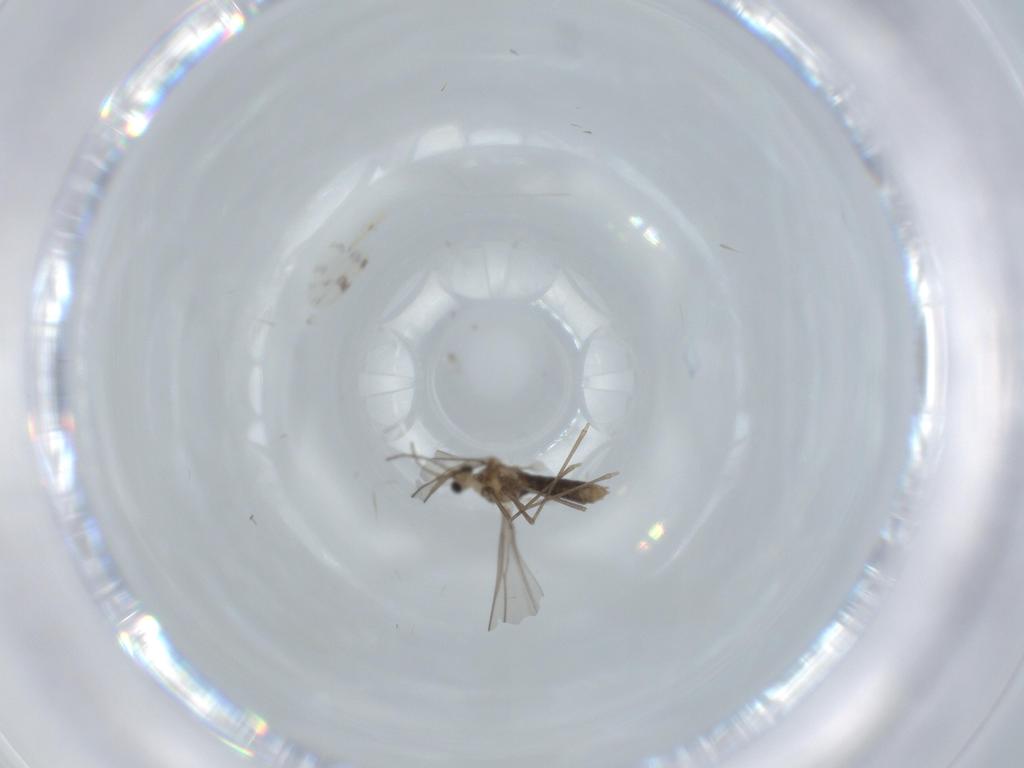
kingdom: Animalia
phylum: Arthropoda
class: Insecta
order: Diptera
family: Cecidomyiidae
